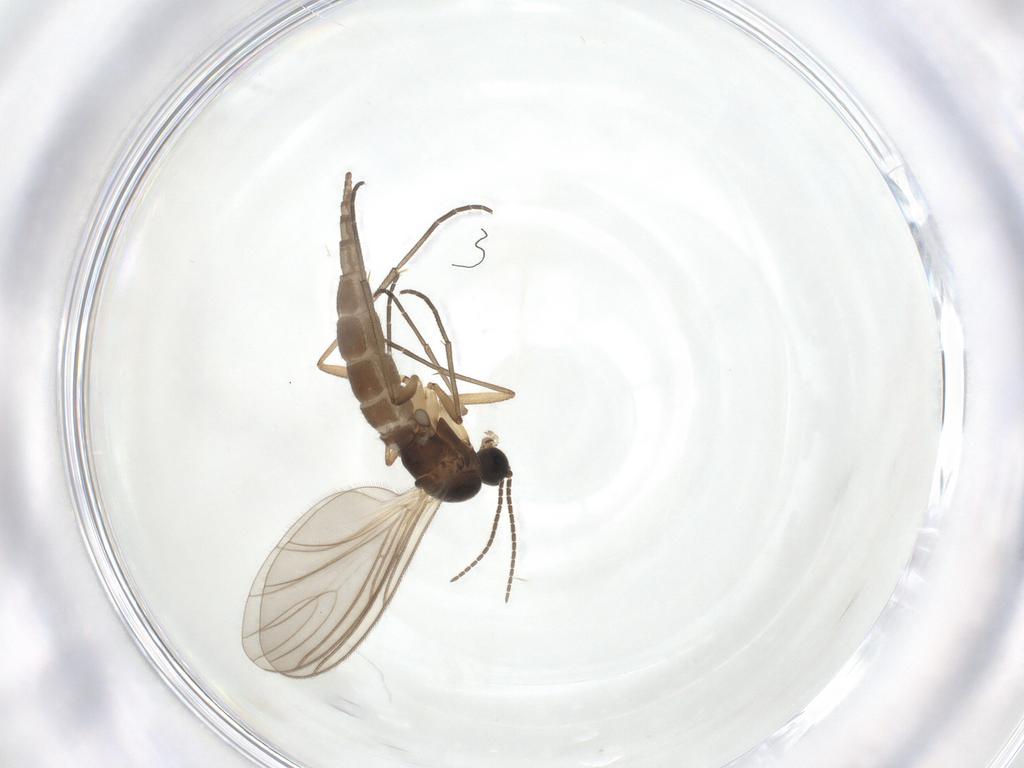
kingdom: Animalia
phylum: Arthropoda
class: Insecta
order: Diptera
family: Sciaridae
